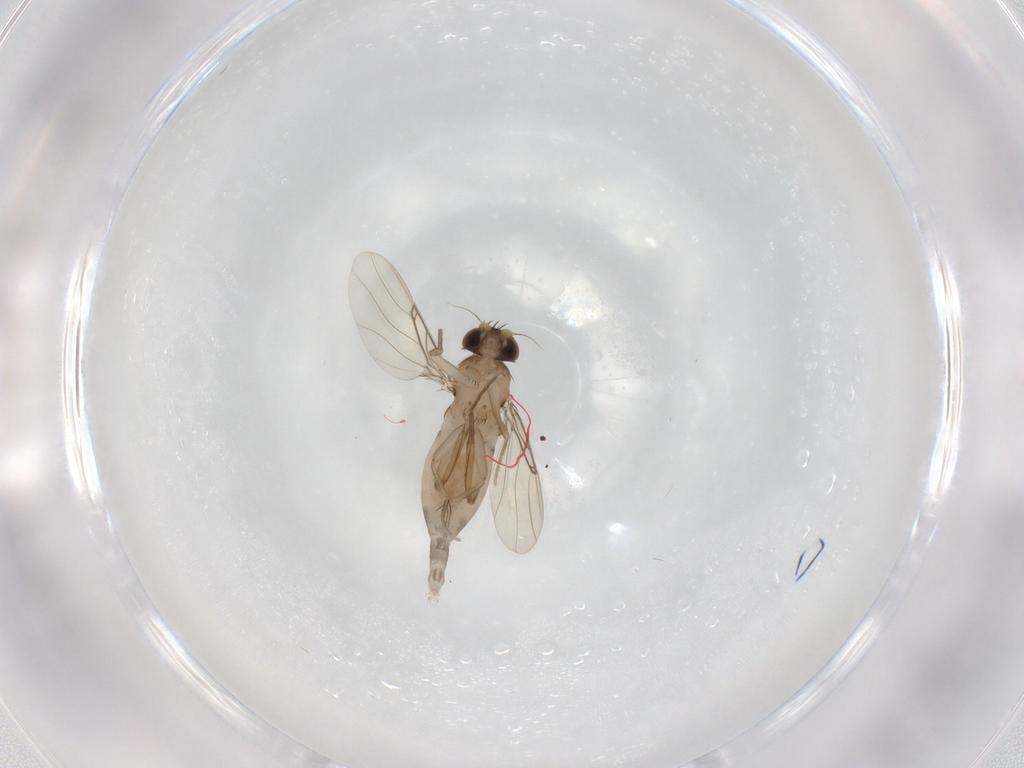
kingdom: Animalia
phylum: Arthropoda
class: Insecta
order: Diptera
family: Phoridae
